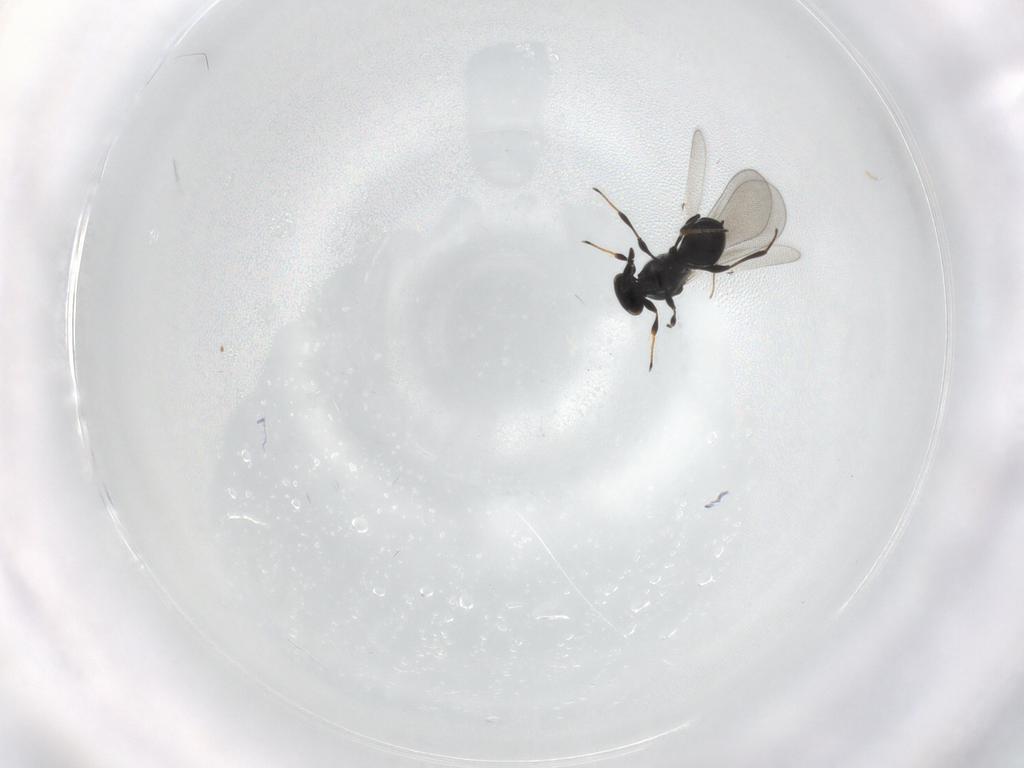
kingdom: Animalia
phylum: Arthropoda
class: Insecta
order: Hymenoptera
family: Platygastridae
